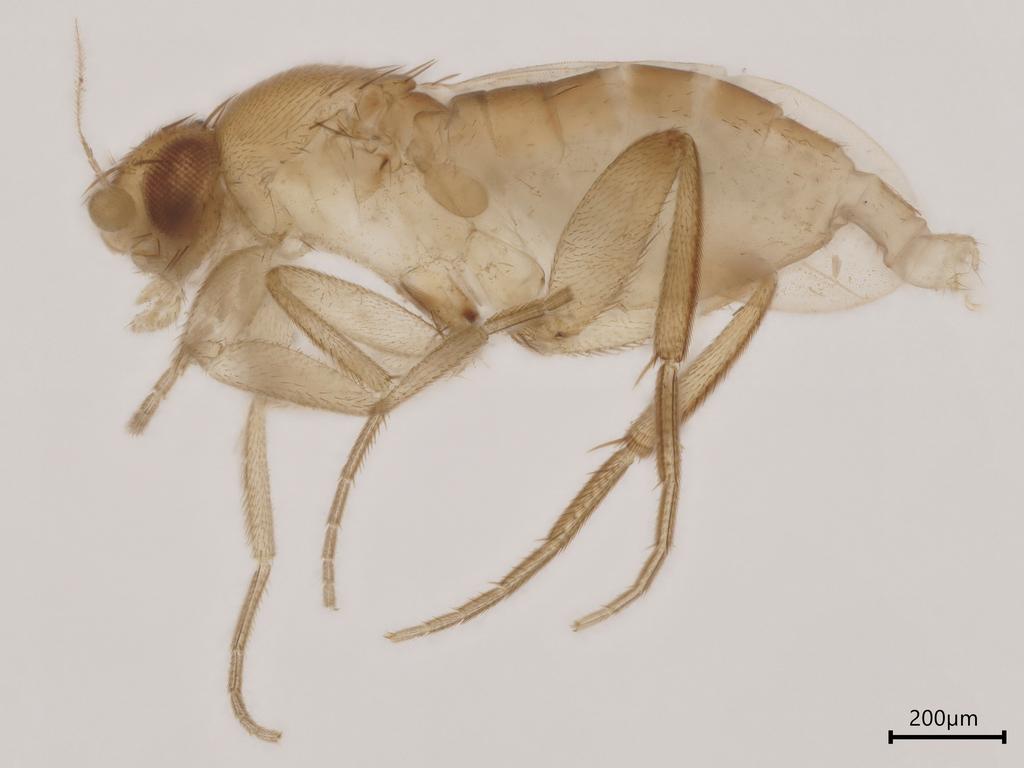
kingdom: Animalia
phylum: Arthropoda
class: Insecta
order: Diptera
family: Phoridae
